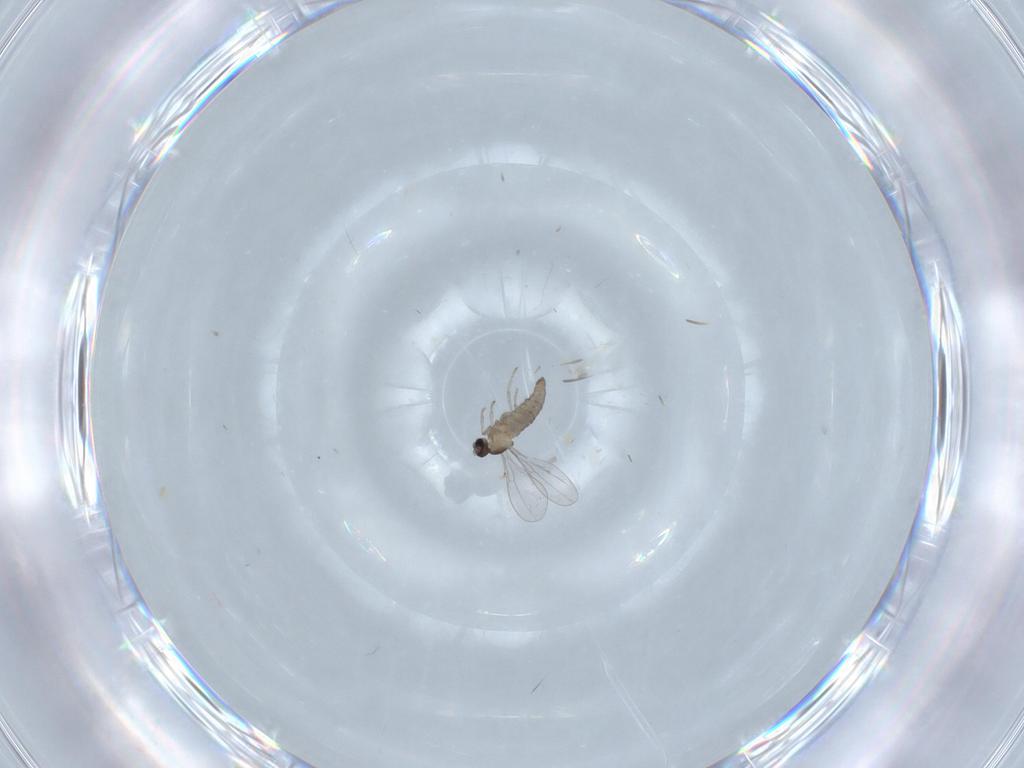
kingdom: Animalia
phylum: Arthropoda
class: Insecta
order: Diptera
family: Cecidomyiidae
